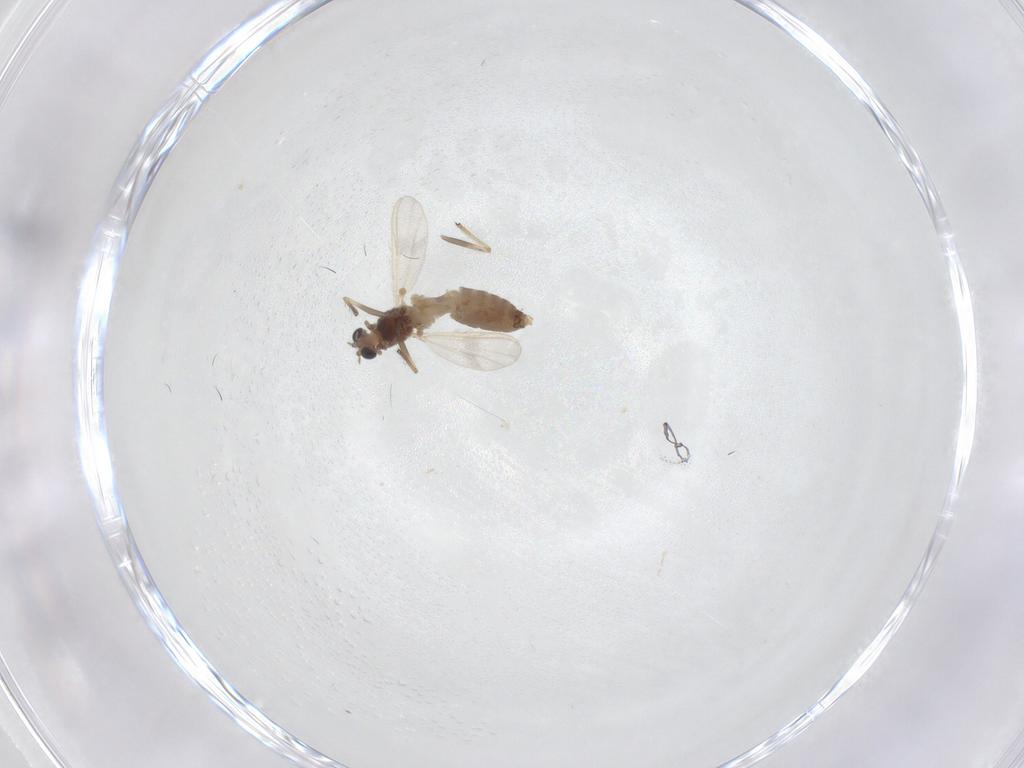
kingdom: Animalia
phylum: Arthropoda
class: Insecta
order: Diptera
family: Chironomidae
